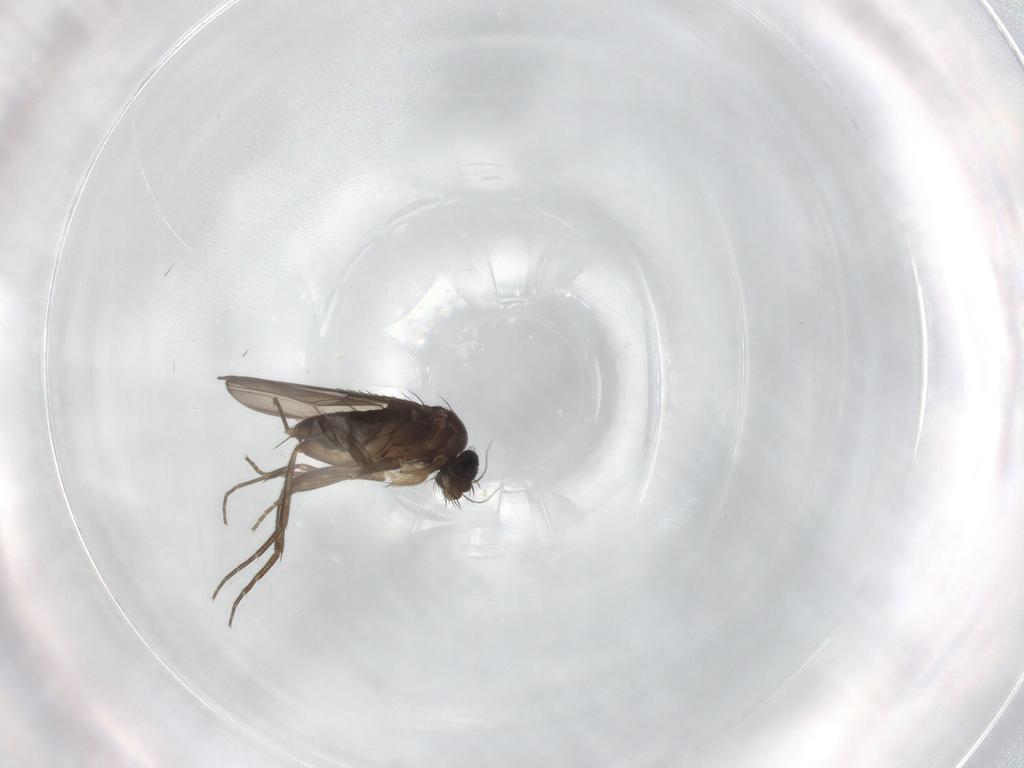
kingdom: Animalia
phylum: Arthropoda
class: Insecta
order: Diptera
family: Phoridae
